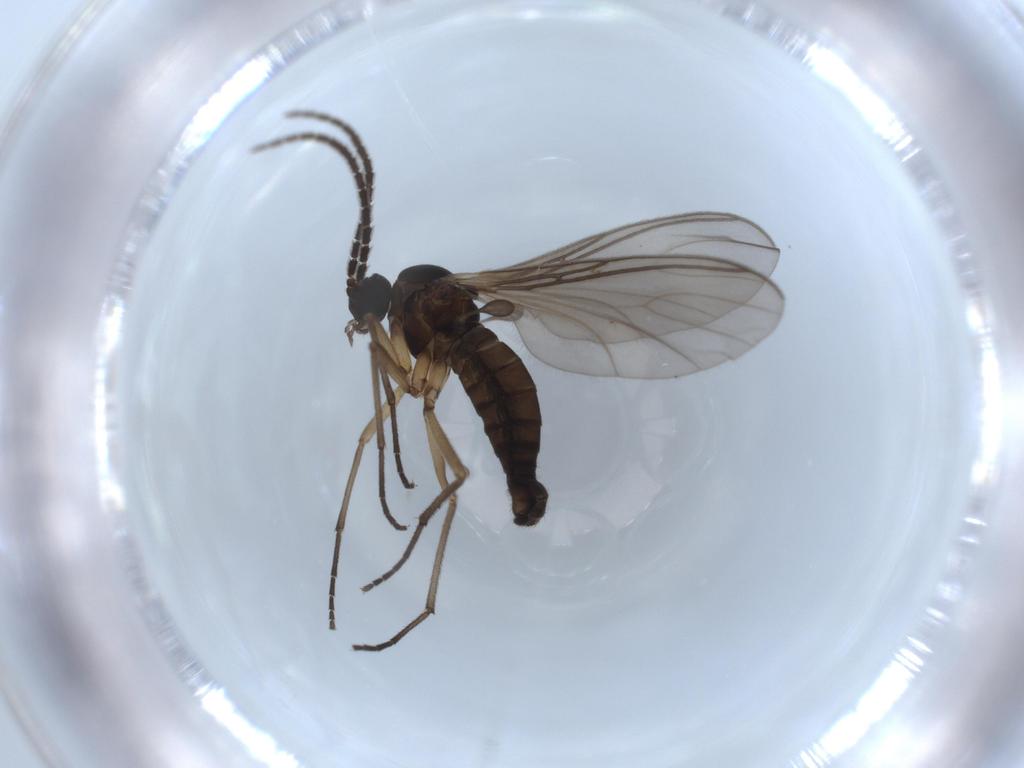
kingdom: Animalia
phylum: Arthropoda
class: Insecta
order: Diptera
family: Sciaridae
